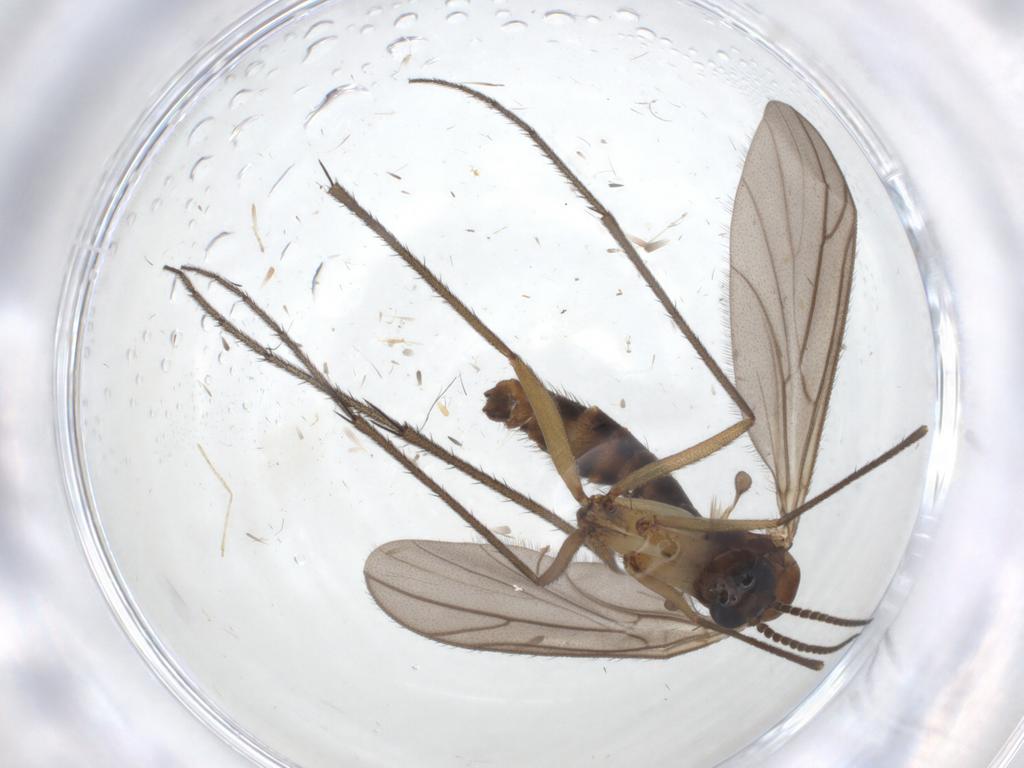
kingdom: Animalia
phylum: Arthropoda
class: Insecta
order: Diptera
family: Ditomyiidae
